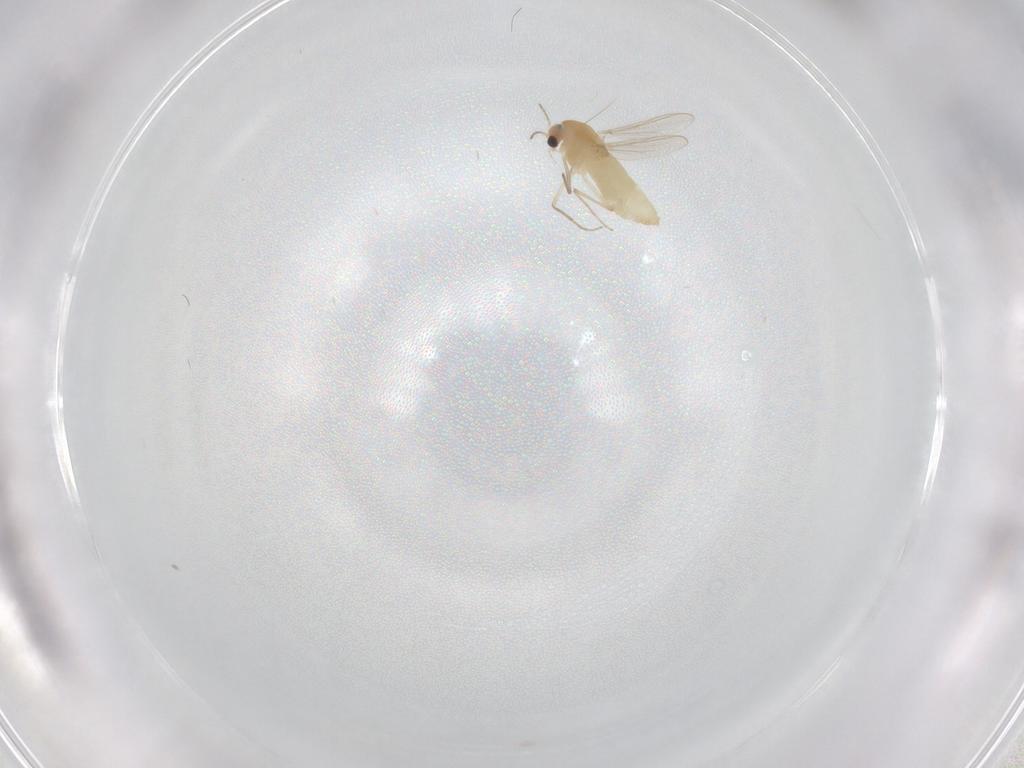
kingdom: Animalia
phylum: Arthropoda
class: Insecta
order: Diptera
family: Chironomidae
